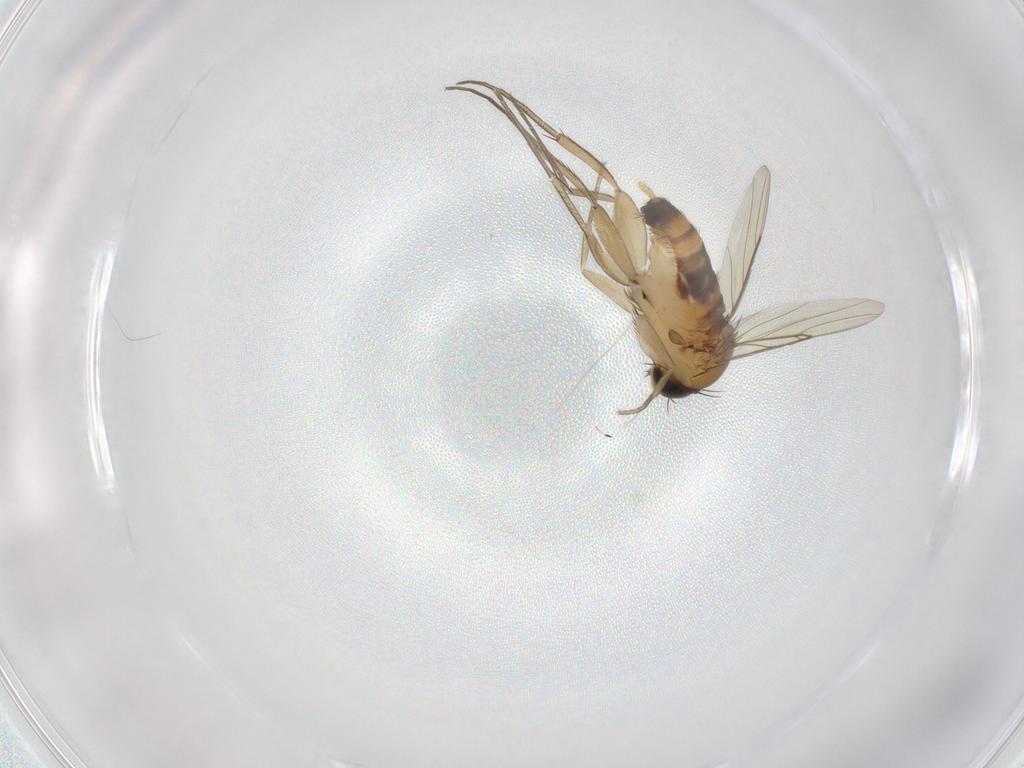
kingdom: Animalia
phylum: Arthropoda
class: Insecta
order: Diptera
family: Phoridae
